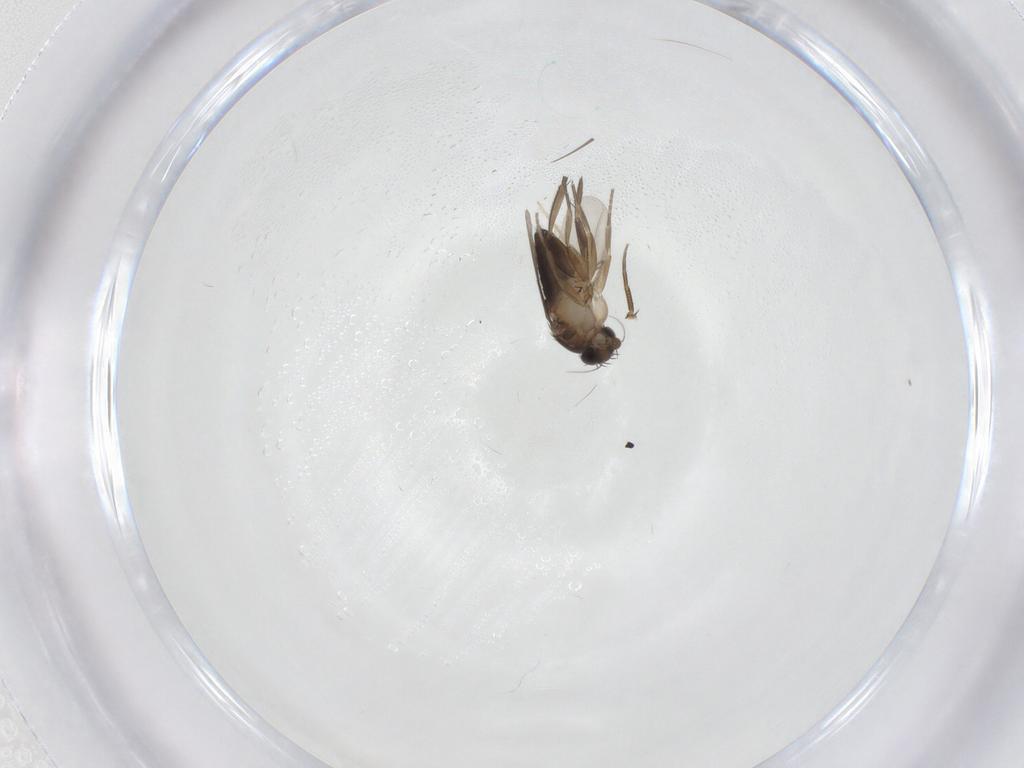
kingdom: Animalia
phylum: Arthropoda
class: Insecta
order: Diptera
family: Phoridae
